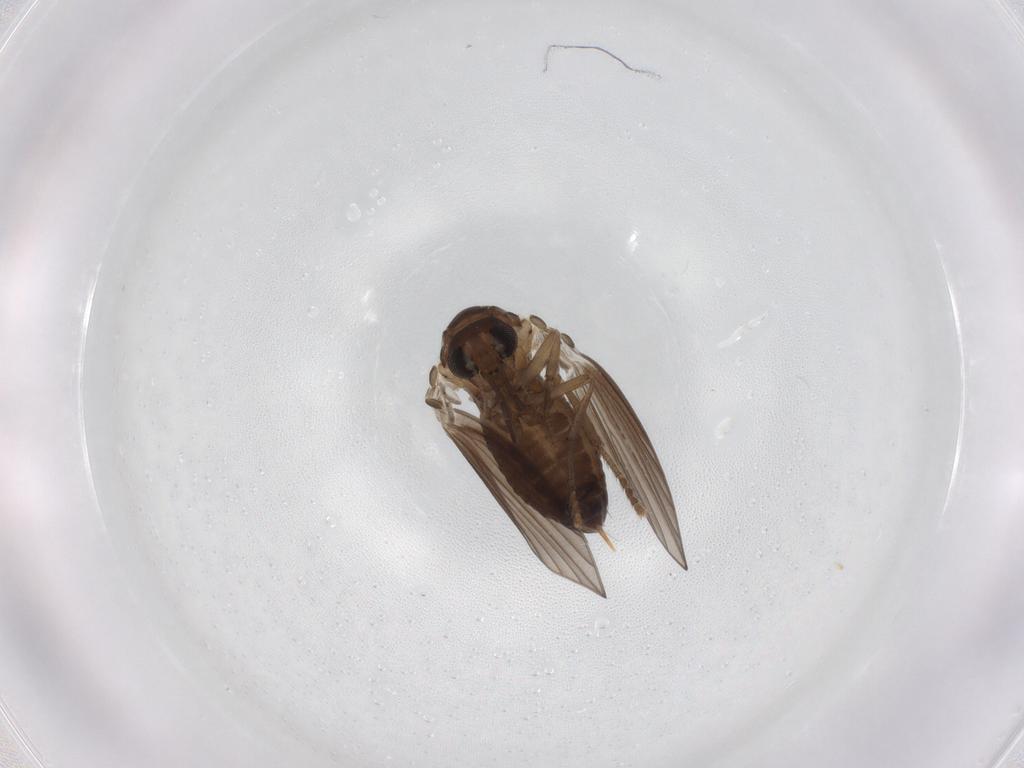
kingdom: Animalia
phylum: Arthropoda
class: Insecta
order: Diptera
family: Psychodidae
